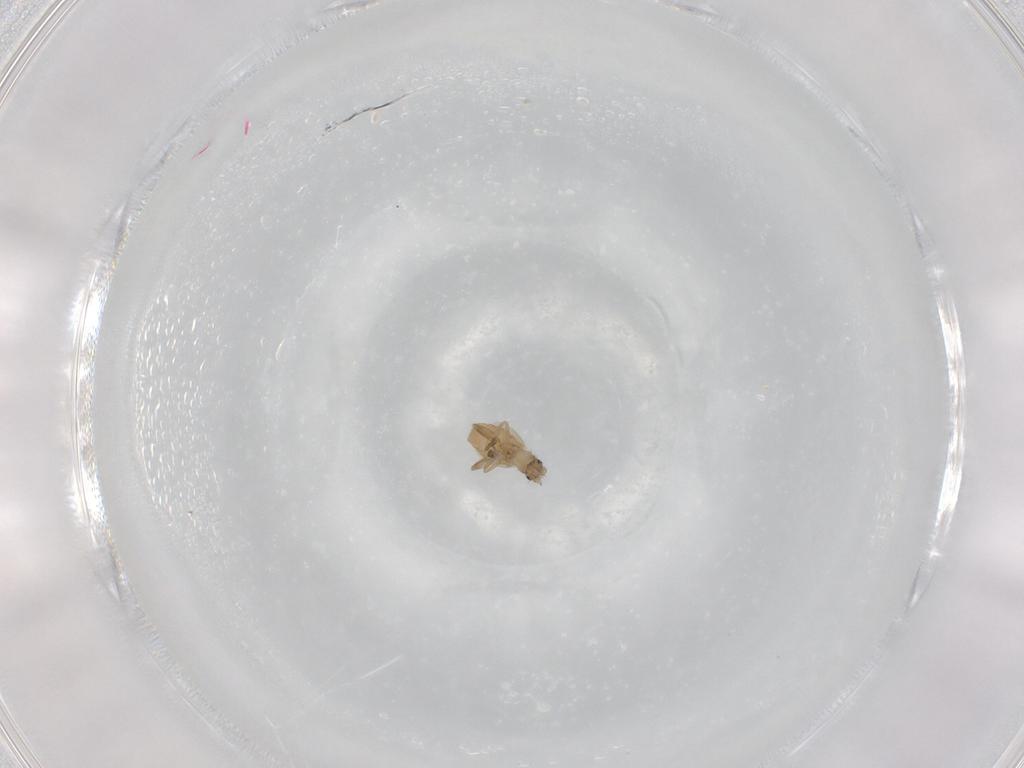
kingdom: Animalia
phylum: Arthropoda
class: Insecta
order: Diptera
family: Phoridae
